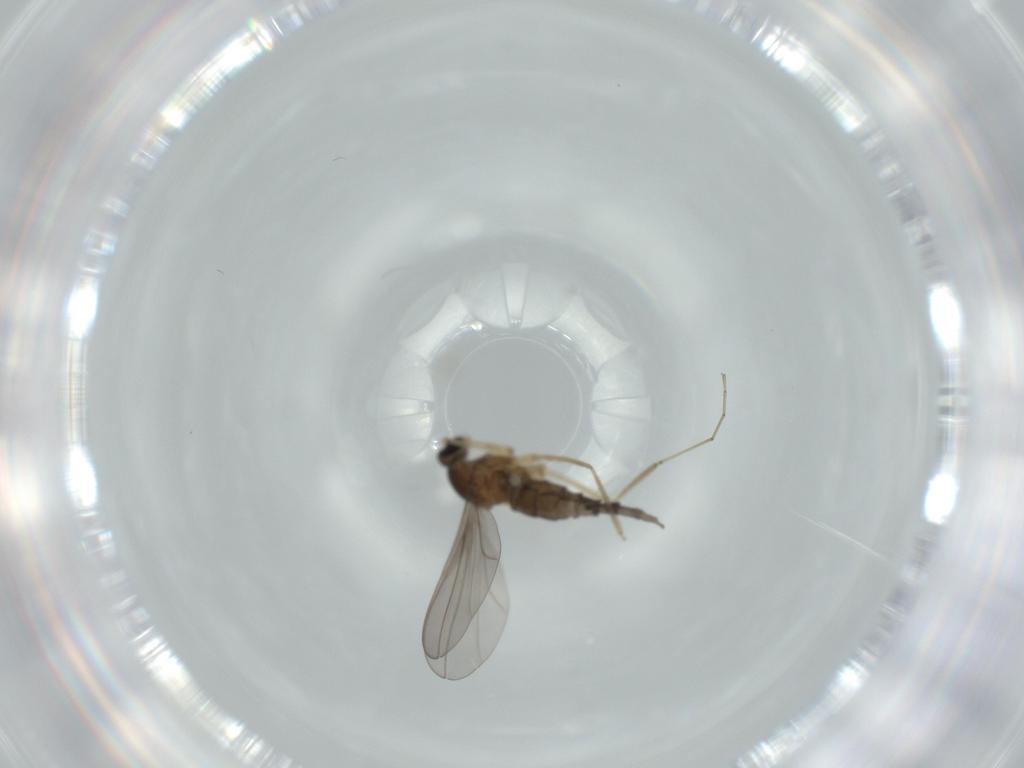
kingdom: Animalia
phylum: Arthropoda
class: Insecta
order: Diptera
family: Cecidomyiidae
